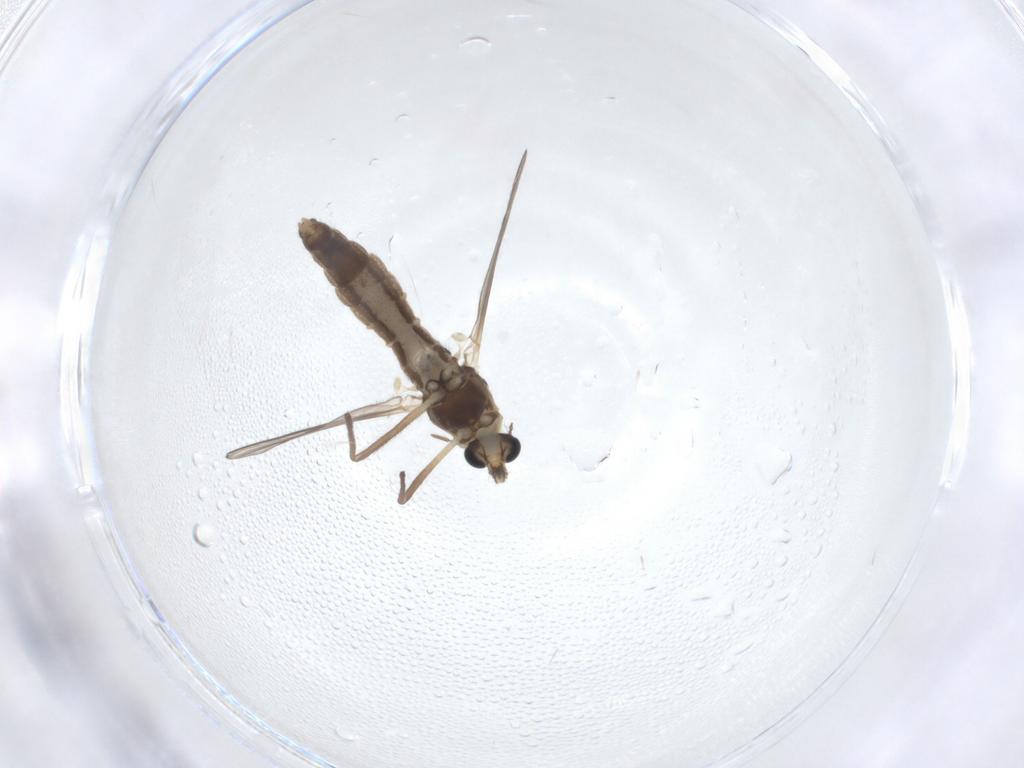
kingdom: Animalia
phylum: Arthropoda
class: Insecta
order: Diptera
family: Chironomidae
